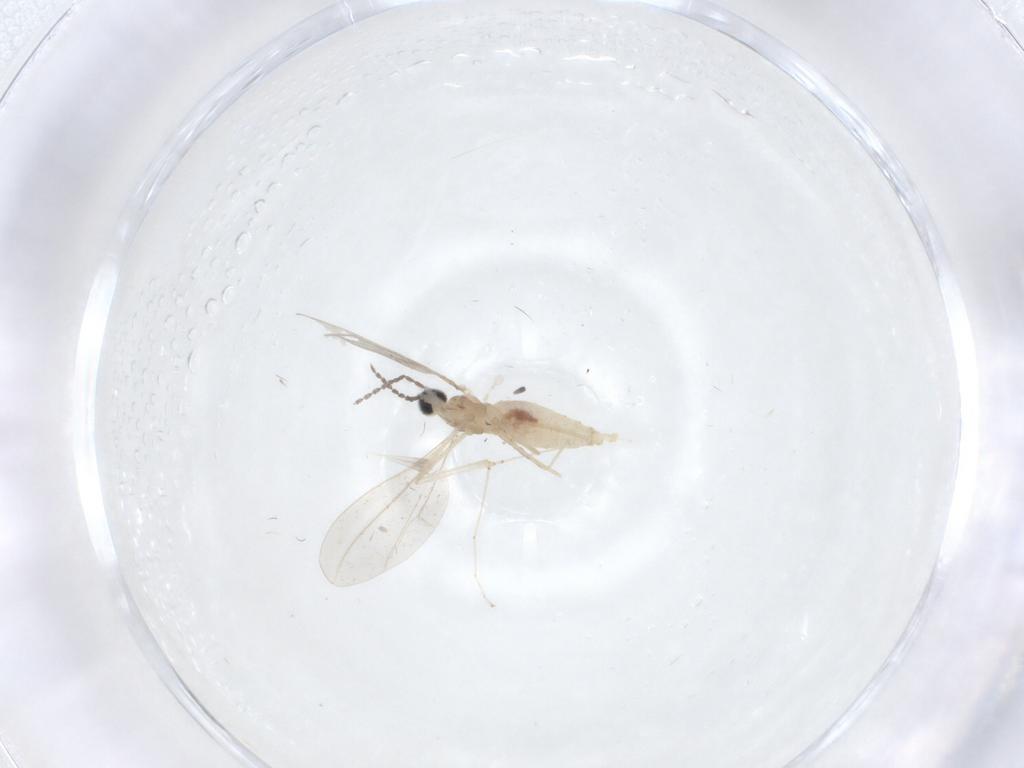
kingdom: Animalia
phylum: Arthropoda
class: Insecta
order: Diptera
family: Cecidomyiidae
